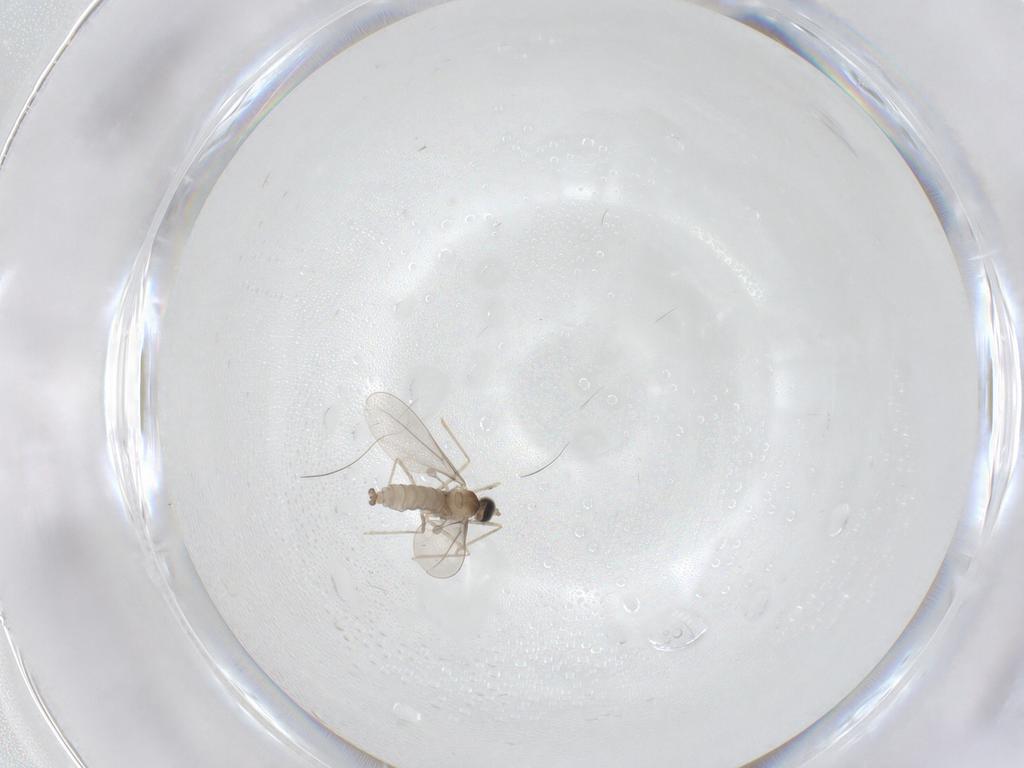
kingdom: Animalia
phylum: Arthropoda
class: Insecta
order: Diptera
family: Cecidomyiidae
